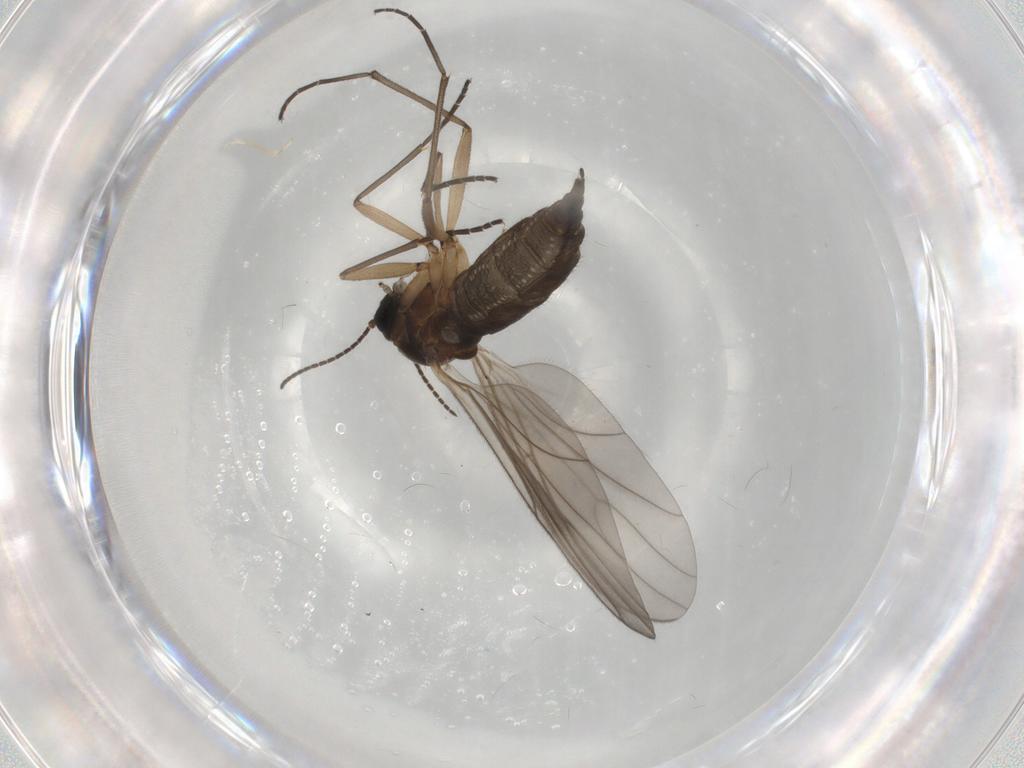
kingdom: Animalia
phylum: Arthropoda
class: Insecta
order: Diptera
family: Sciaridae
